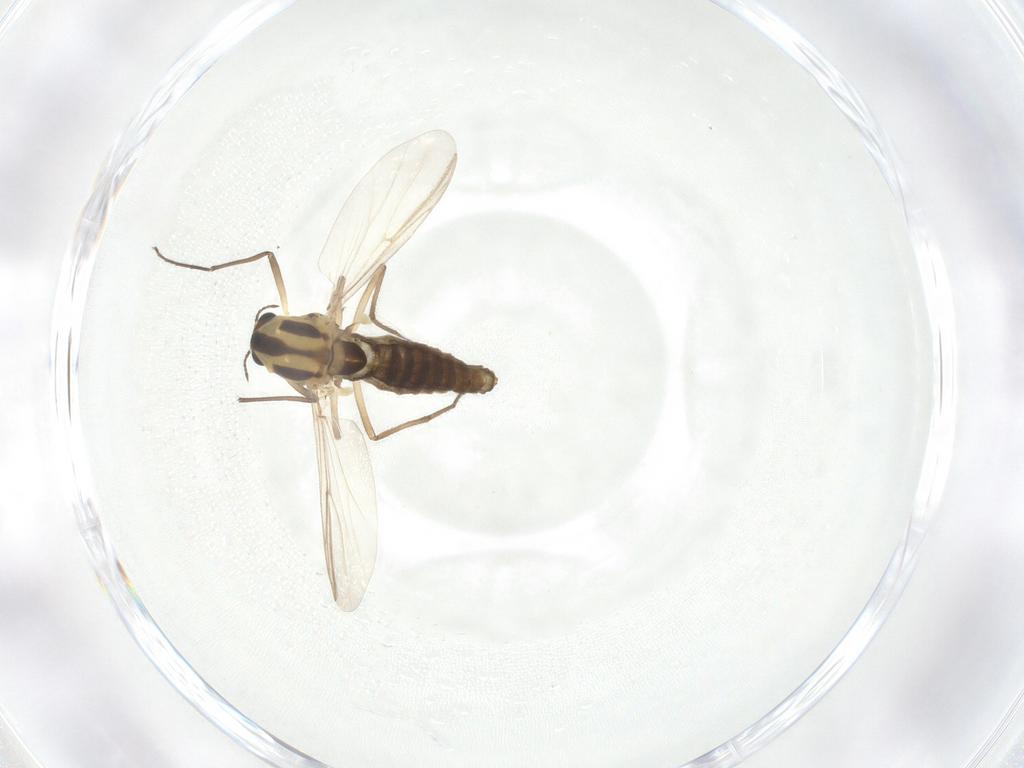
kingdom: Animalia
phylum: Arthropoda
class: Insecta
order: Diptera
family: Chironomidae
